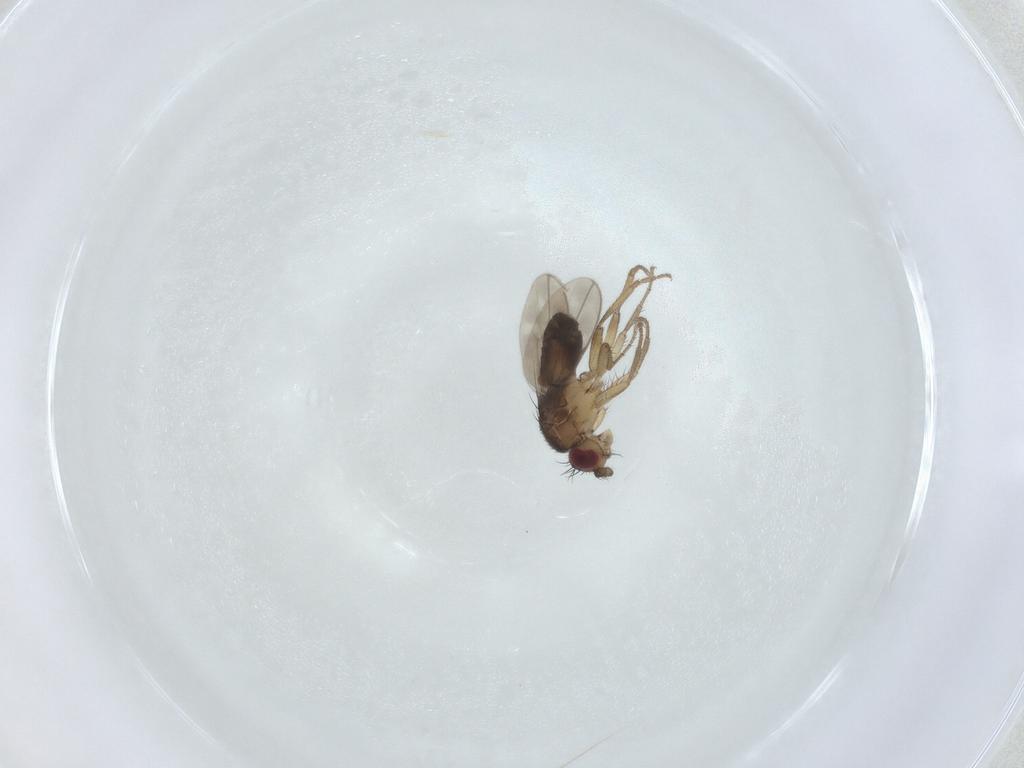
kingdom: Animalia
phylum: Arthropoda
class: Insecta
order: Diptera
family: Sphaeroceridae
